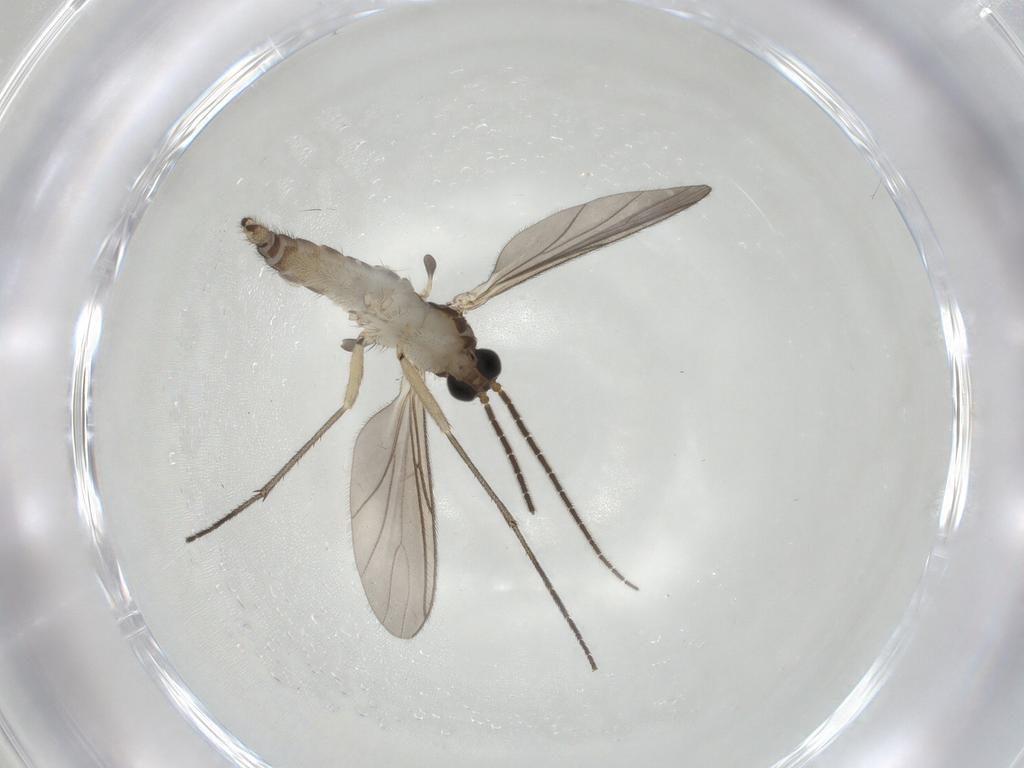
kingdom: Animalia
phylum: Arthropoda
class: Insecta
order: Diptera
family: Sciaridae
